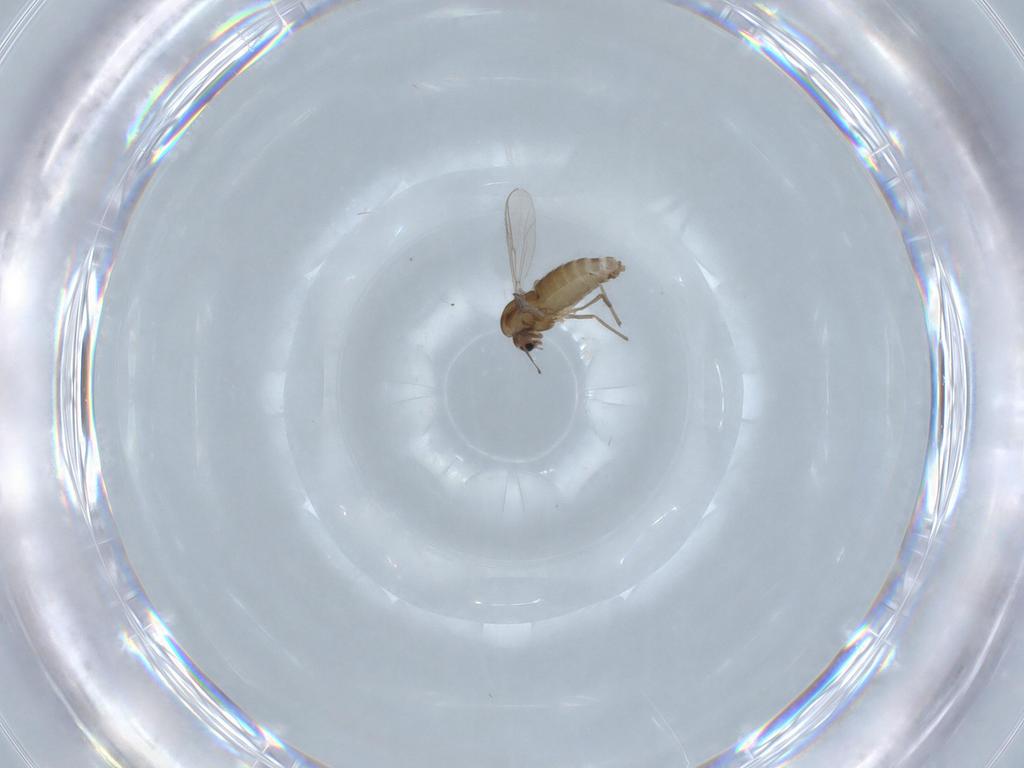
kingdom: Animalia
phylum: Arthropoda
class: Insecta
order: Diptera
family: Chironomidae
